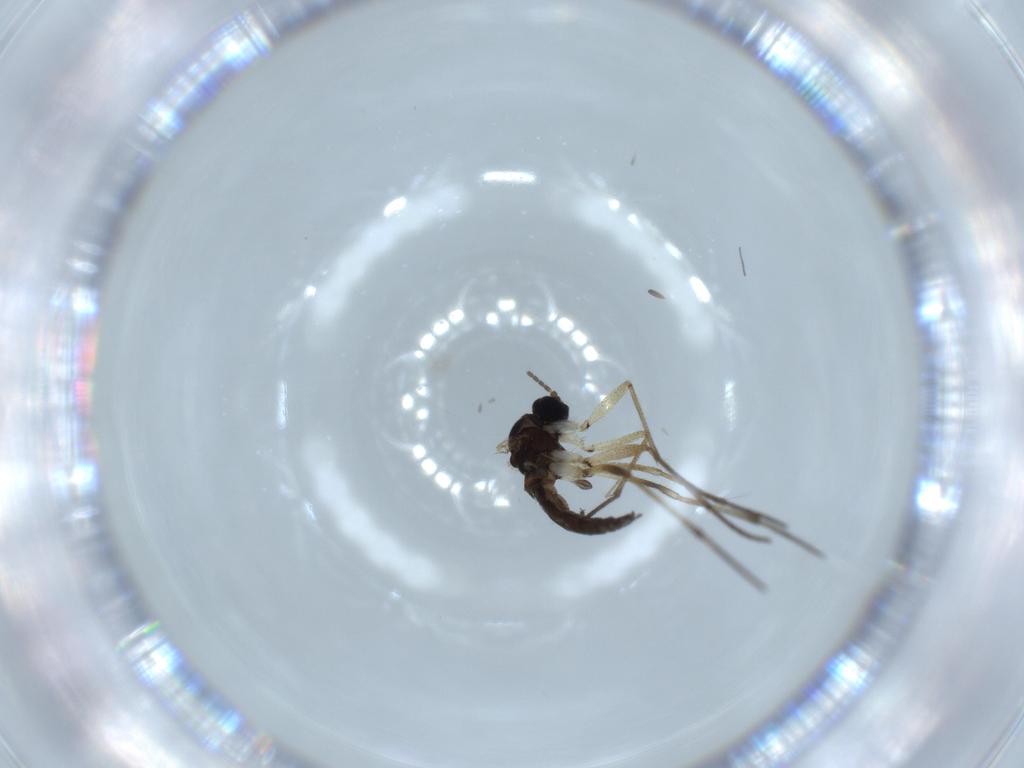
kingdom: Animalia
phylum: Arthropoda
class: Insecta
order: Diptera
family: Sciaridae
